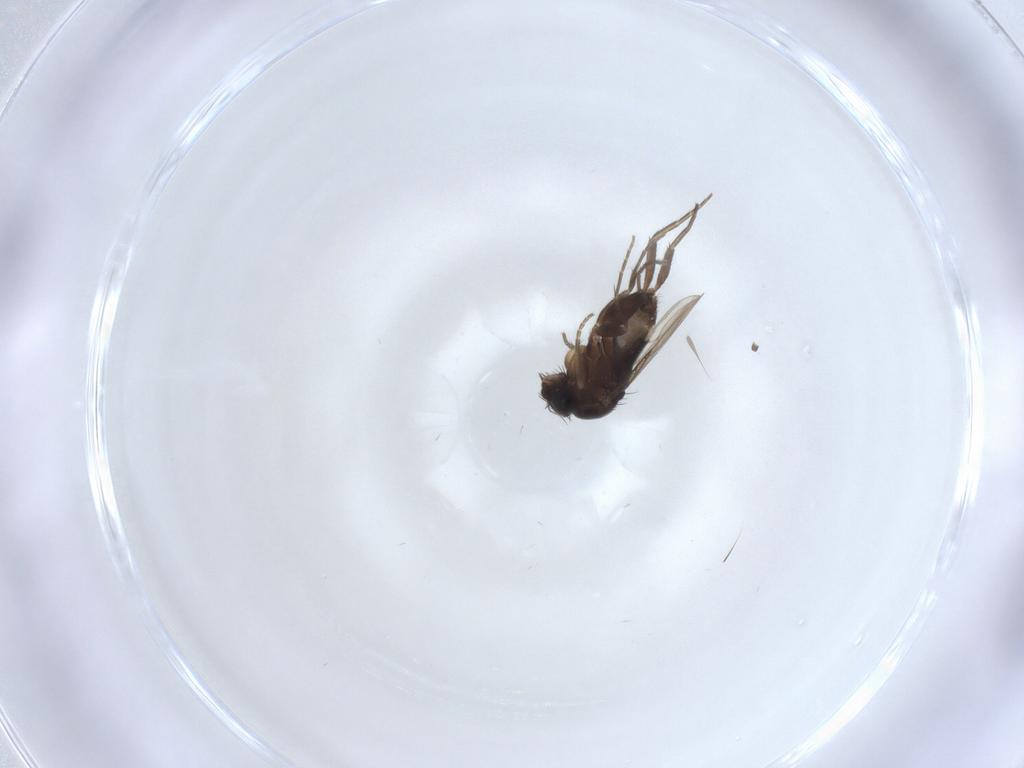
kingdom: Animalia
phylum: Arthropoda
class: Insecta
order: Diptera
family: Phoridae
